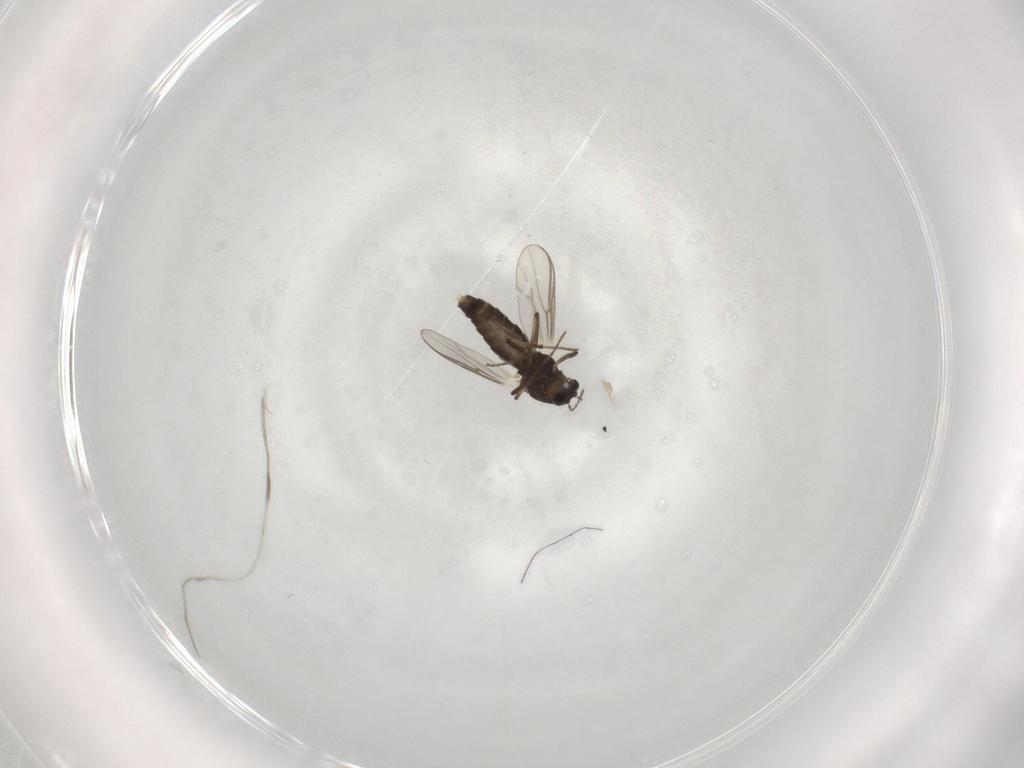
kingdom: Animalia
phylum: Arthropoda
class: Insecta
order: Diptera
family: Chironomidae
